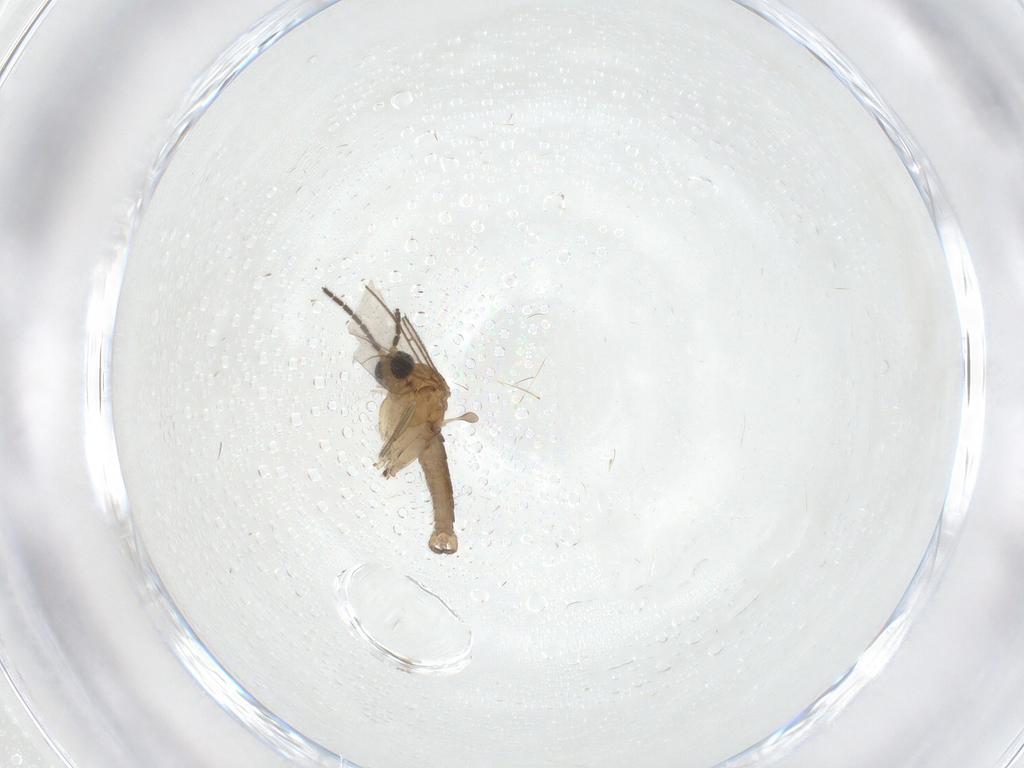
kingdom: Animalia
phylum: Arthropoda
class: Insecta
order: Diptera
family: Sciaridae
